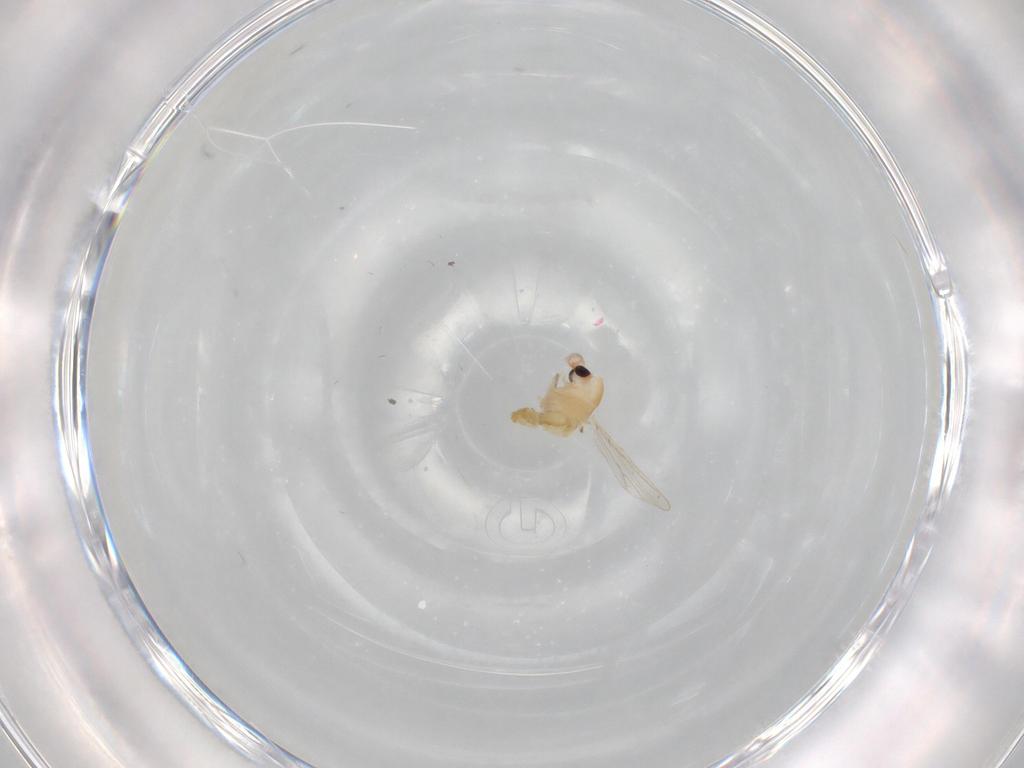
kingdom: Animalia
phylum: Arthropoda
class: Insecta
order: Diptera
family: Chironomidae
